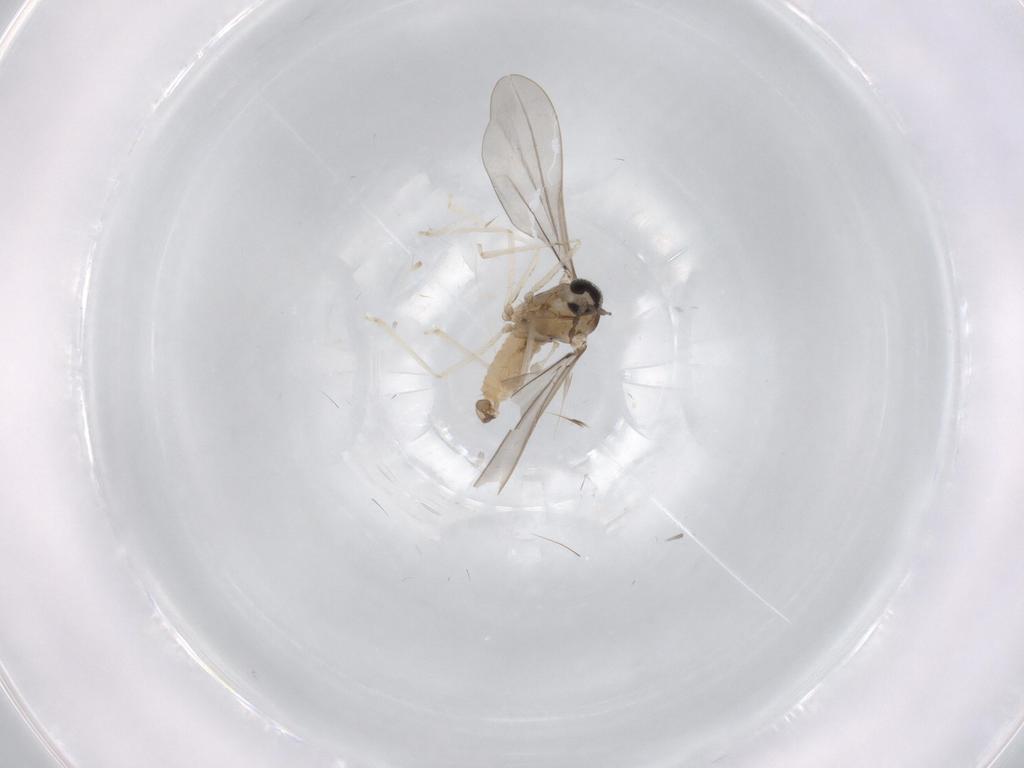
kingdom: Animalia
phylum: Arthropoda
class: Insecta
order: Diptera
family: Cecidomyiidae
